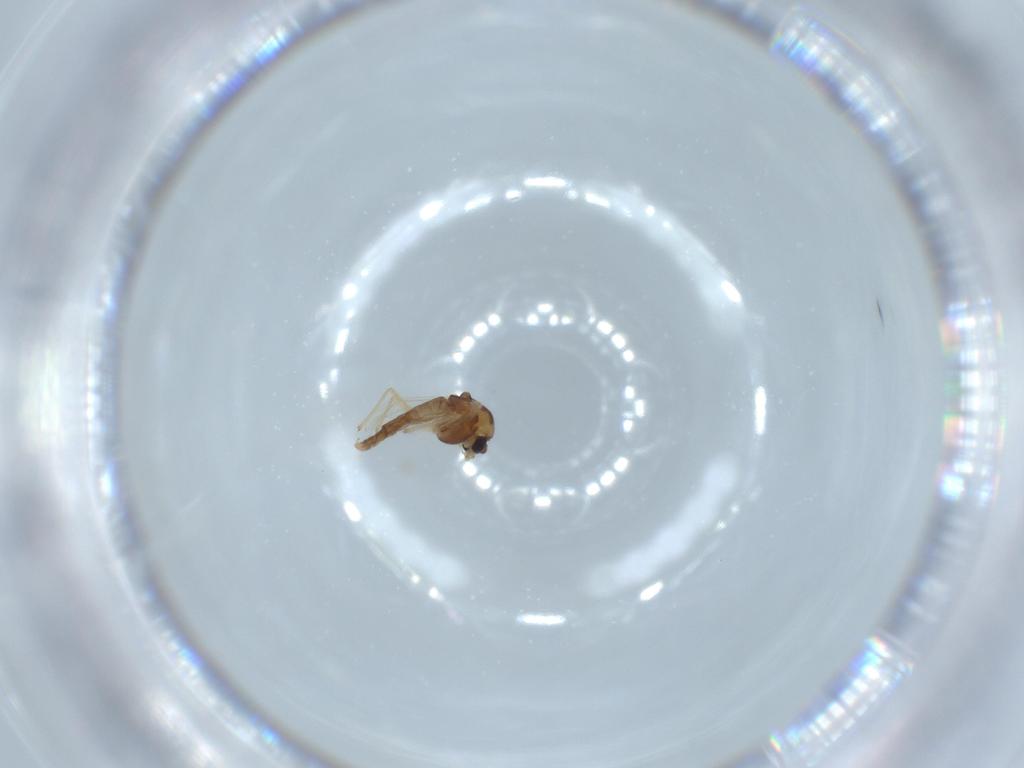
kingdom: Animalia
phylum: Arthropoda
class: Insecta
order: Diptera
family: Chironomidae
